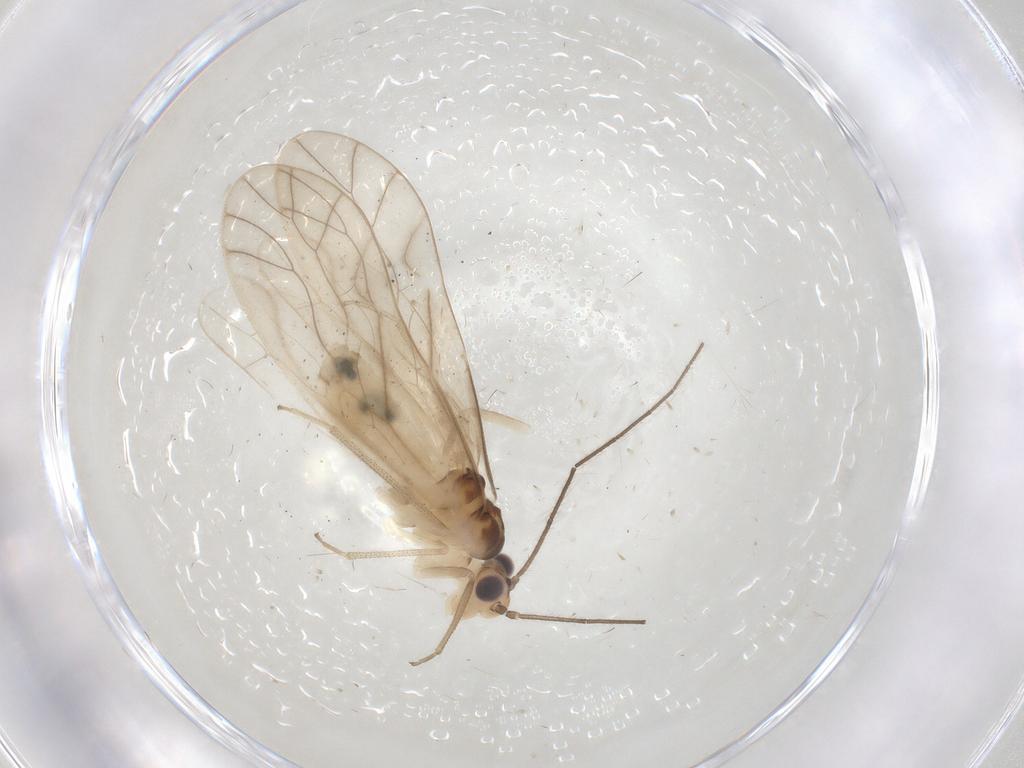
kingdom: Animalia
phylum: Arthropoda
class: Insecta
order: Psocodea
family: Caeciliusidae
